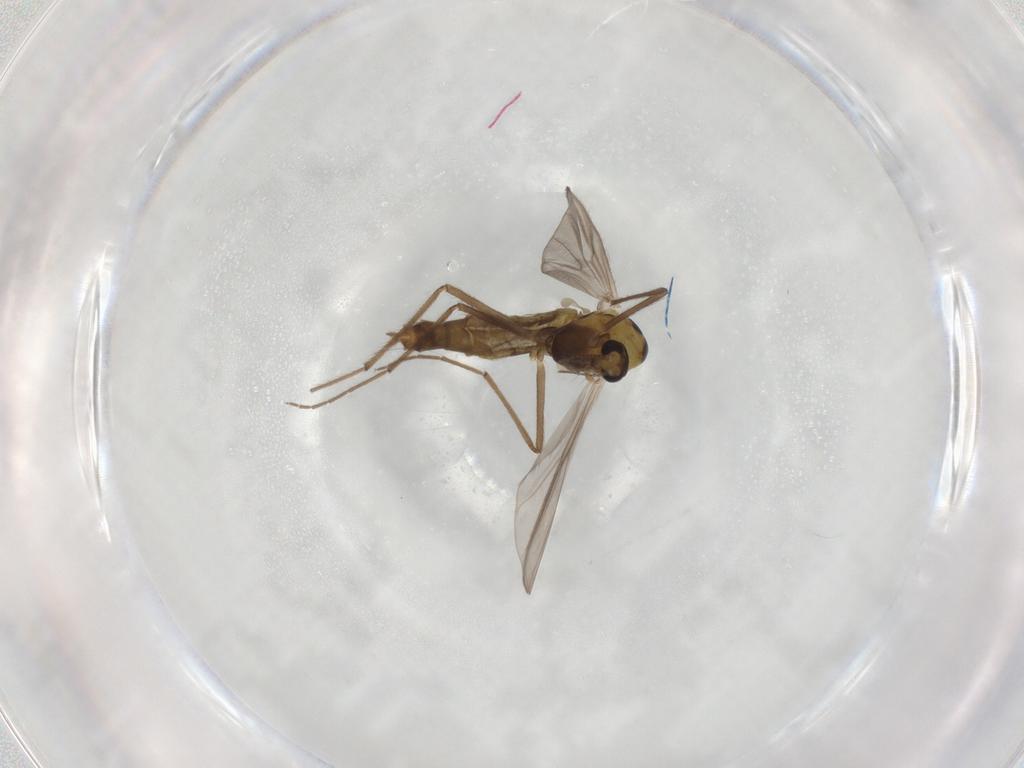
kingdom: Animalia
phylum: Arthropoda
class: Insecta
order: Diptera
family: Chironomidae
